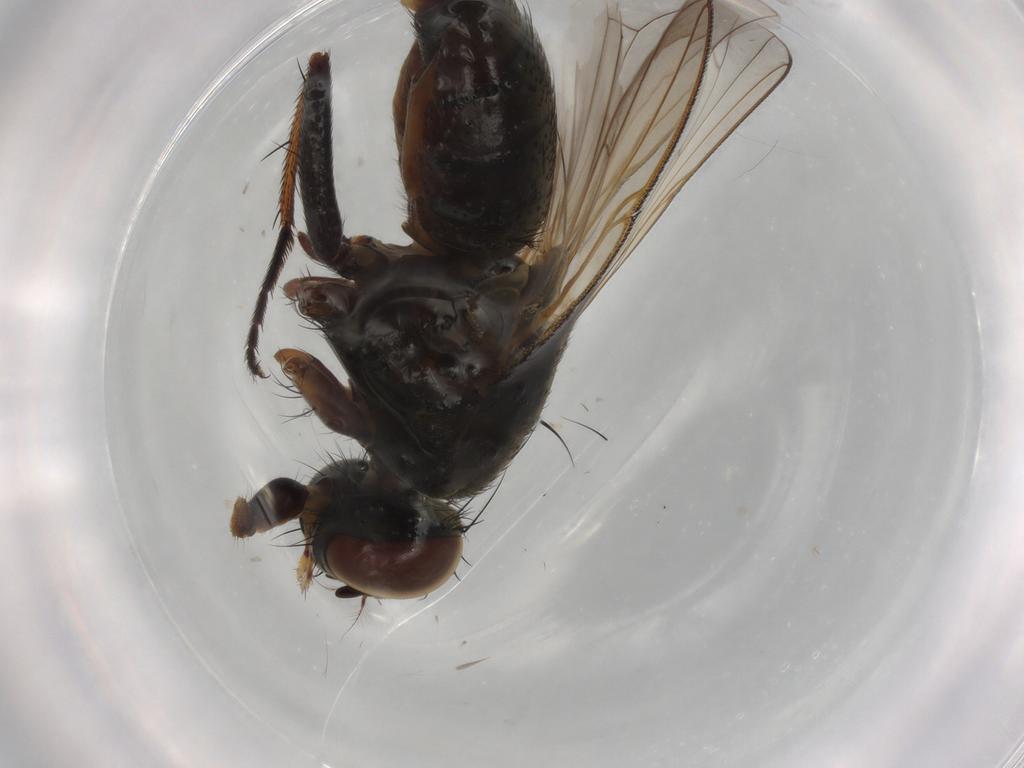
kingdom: Animalia
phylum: Arthropoda
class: Insecta
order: Diptera
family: Muscidae
